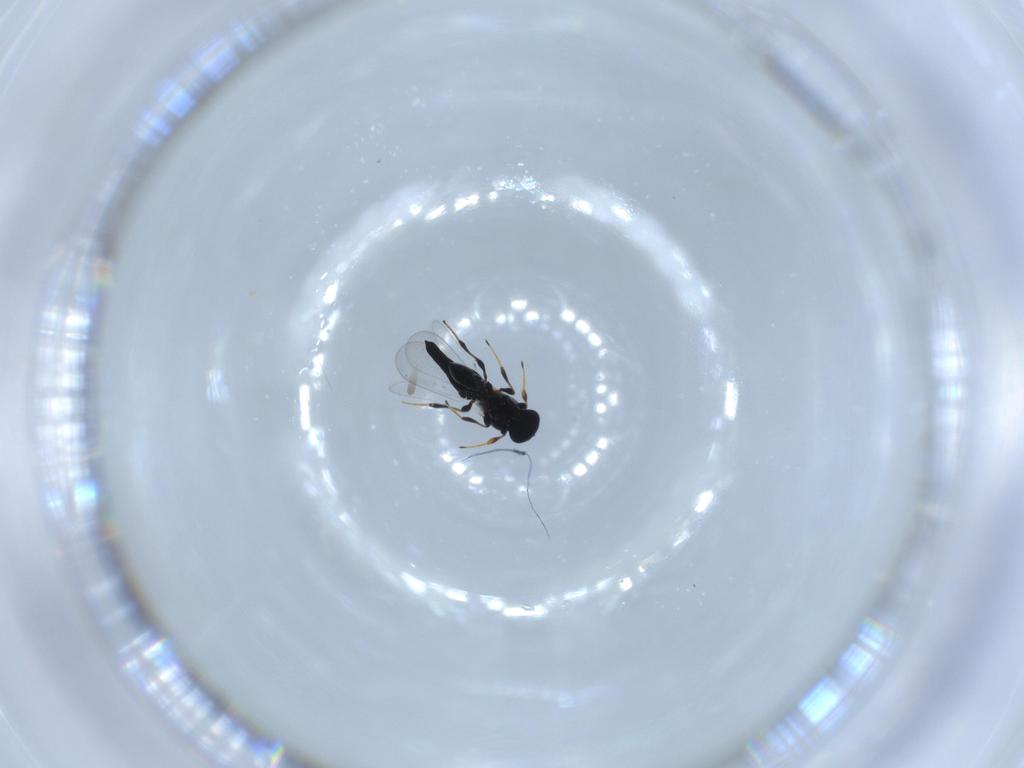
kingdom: Animalia
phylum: Arthropoda
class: Insecta
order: Hymenoptera
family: Platygastridae
